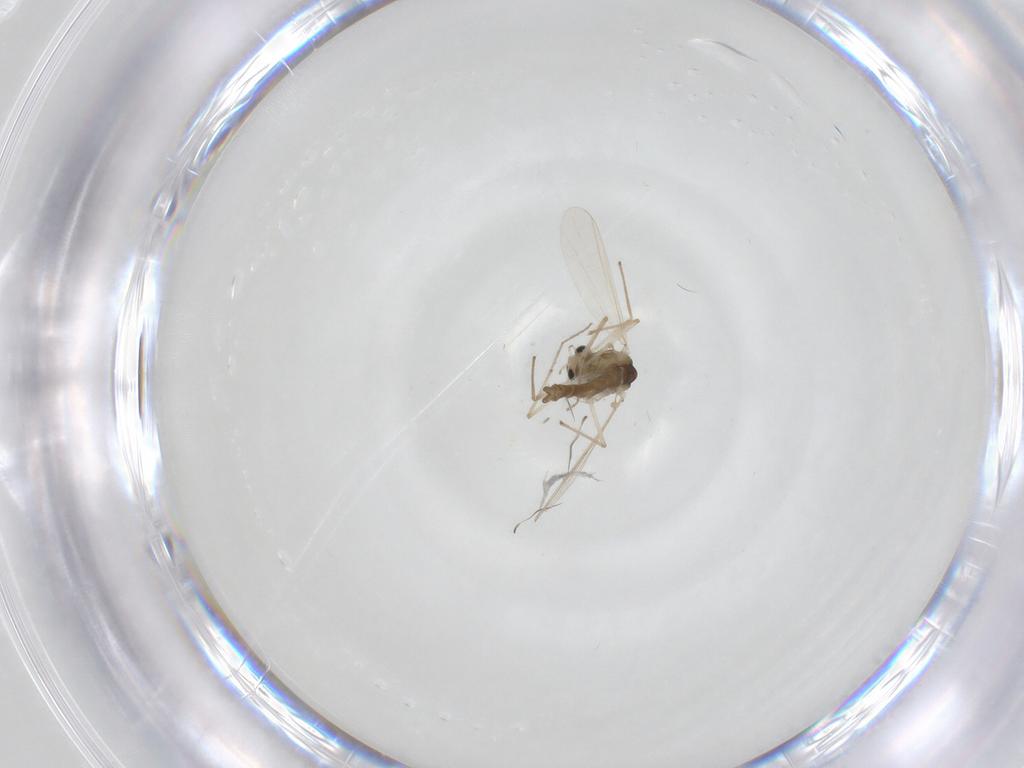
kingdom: Animalia
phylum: Arthropoda
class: Insecta
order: Diptera
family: Chironomidae
